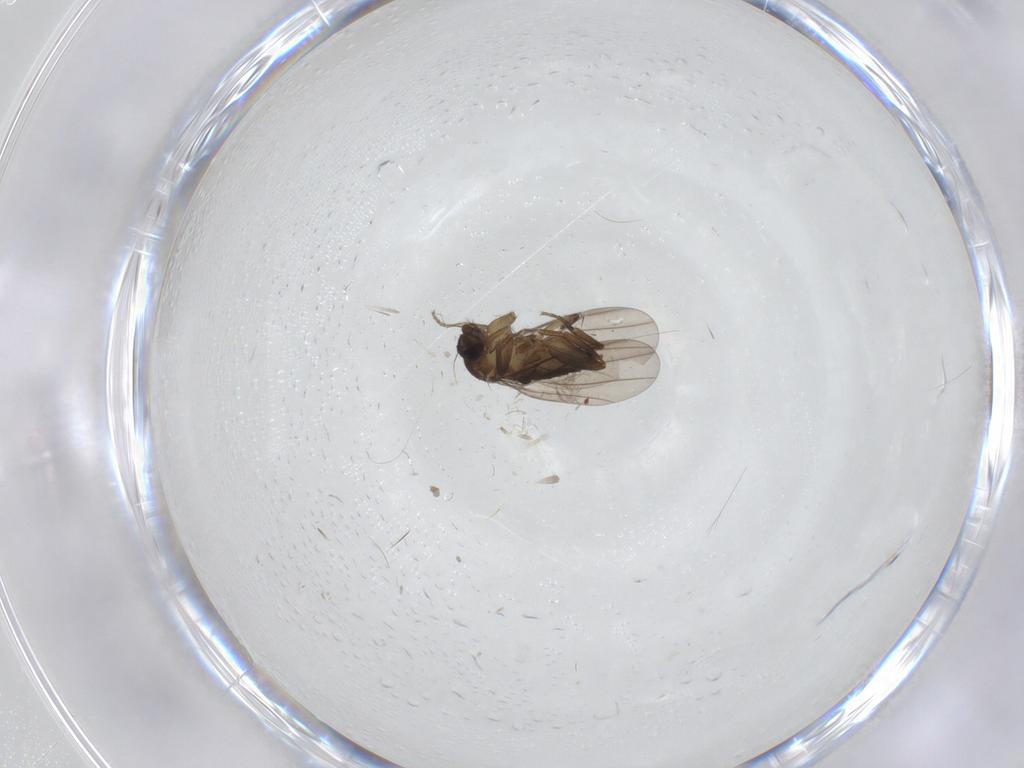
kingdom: Animalia
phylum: Arthropoda
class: Insecta
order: Diptera
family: Phoridae
